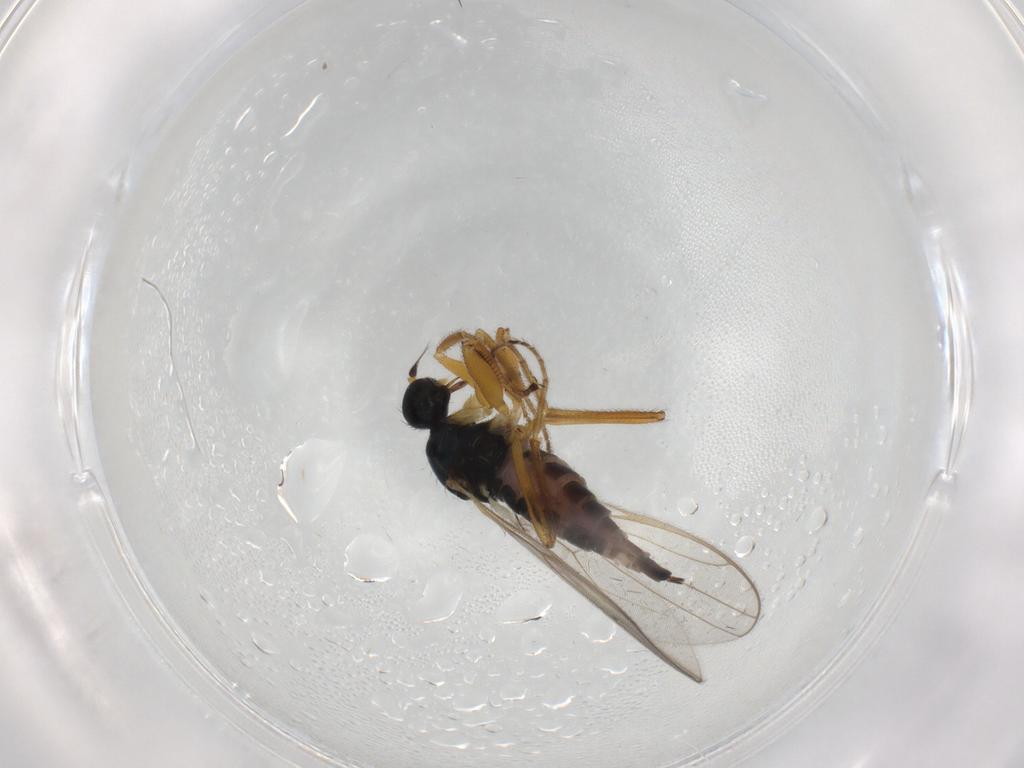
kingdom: Animalia
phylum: Arthropoda
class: Insecta
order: Diptera
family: Hybotidae
